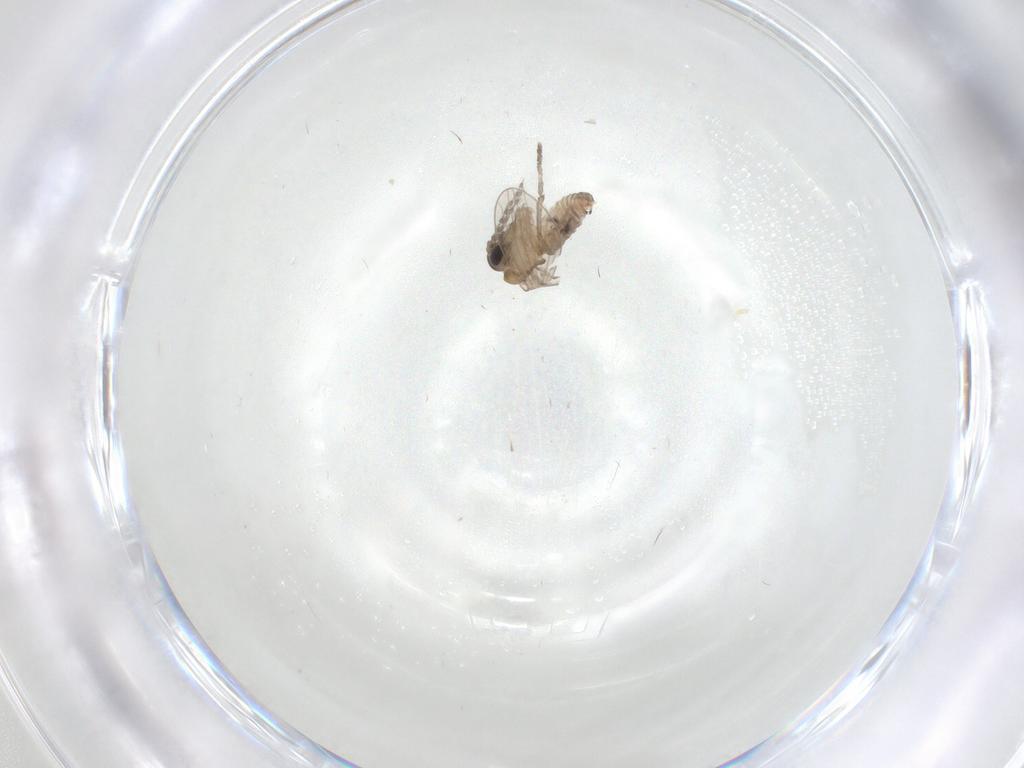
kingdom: Animalia
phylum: Arthropoda
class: Insecta
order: Diptera
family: Psychodidae
